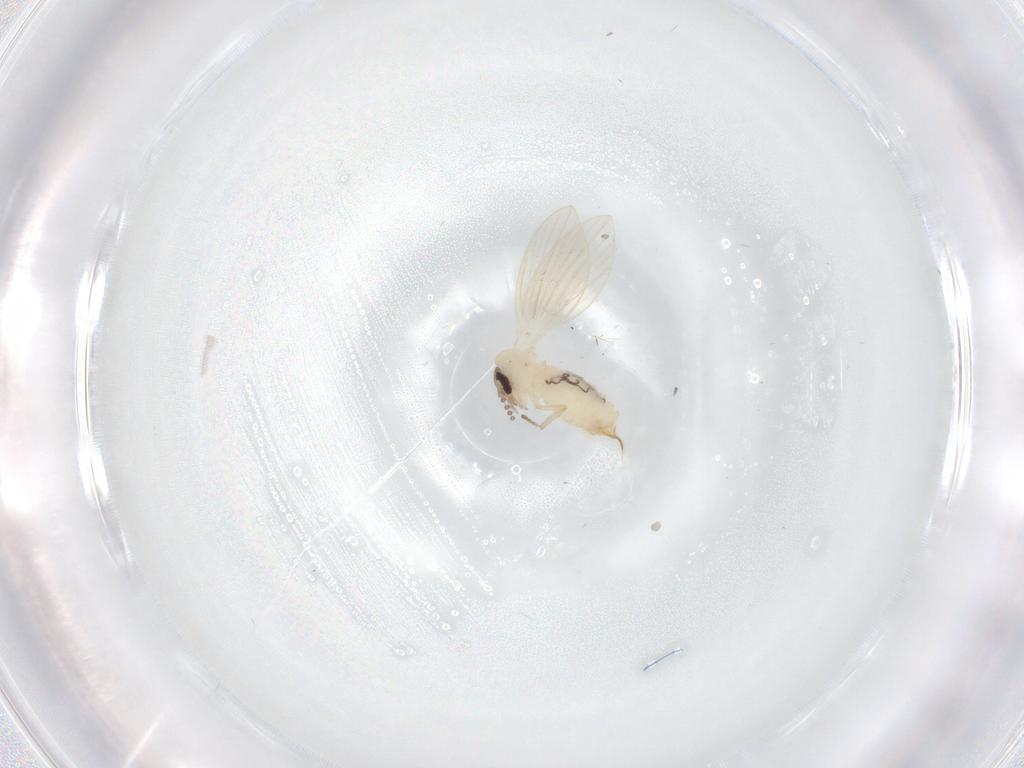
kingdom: Animalia
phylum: Arthropoda
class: Insecta
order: Diptera
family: Psychodidae
